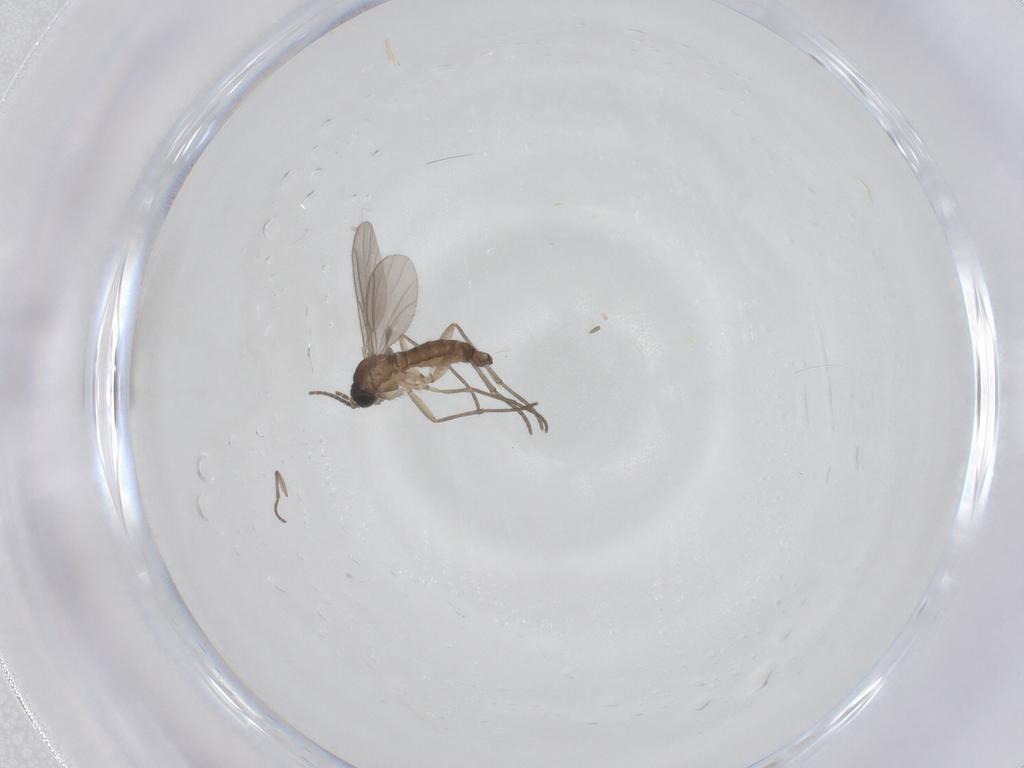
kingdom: Animalia
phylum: Arthropoda
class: Insecta
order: Diptera
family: Sciaridae
